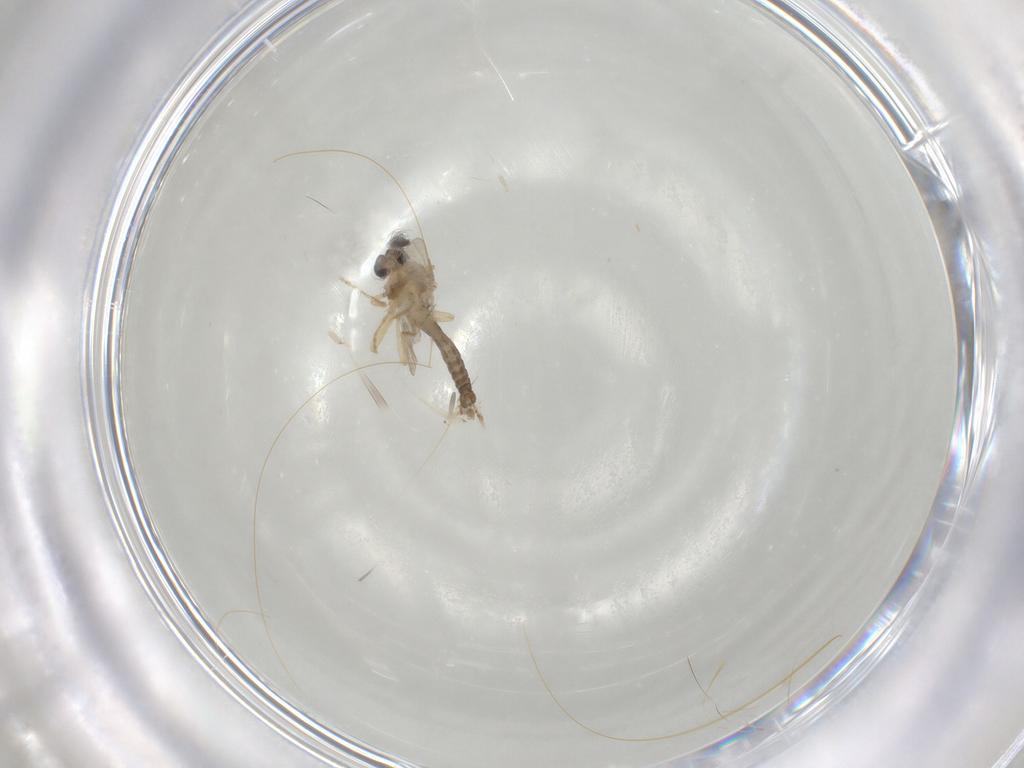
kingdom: Animalia
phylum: Arthropoda
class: Insecta
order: Diptera
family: Ceratopogonidae
